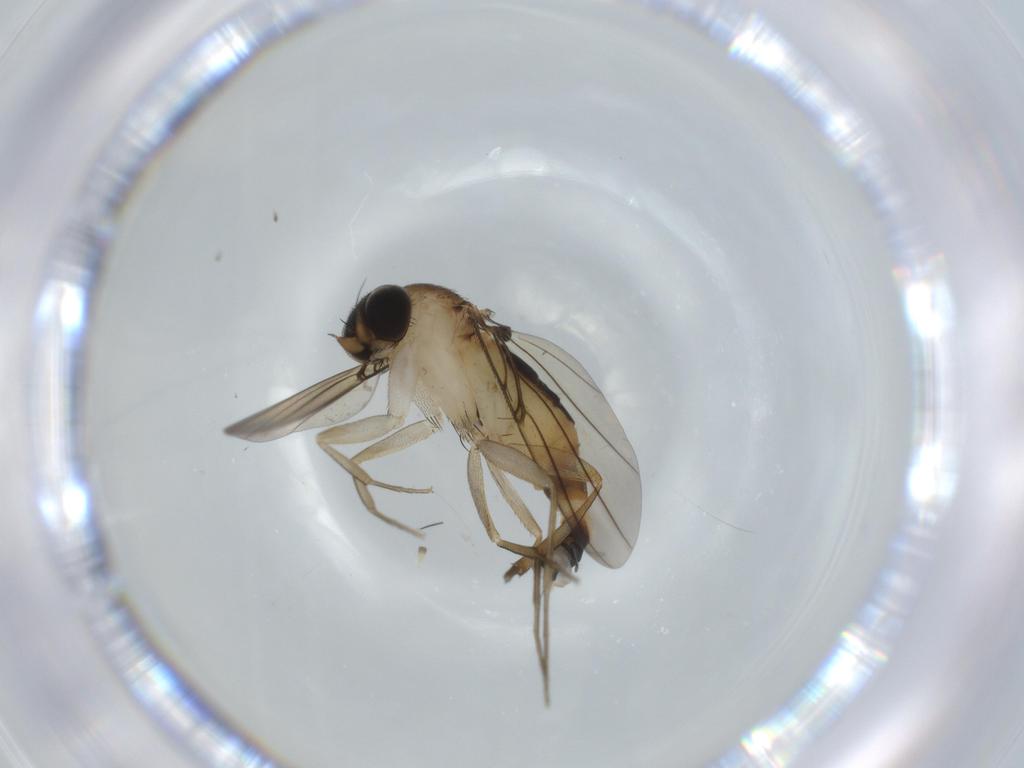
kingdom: Animalia
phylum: Arthropoda
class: Insecta
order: Diptera
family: Phoridae
